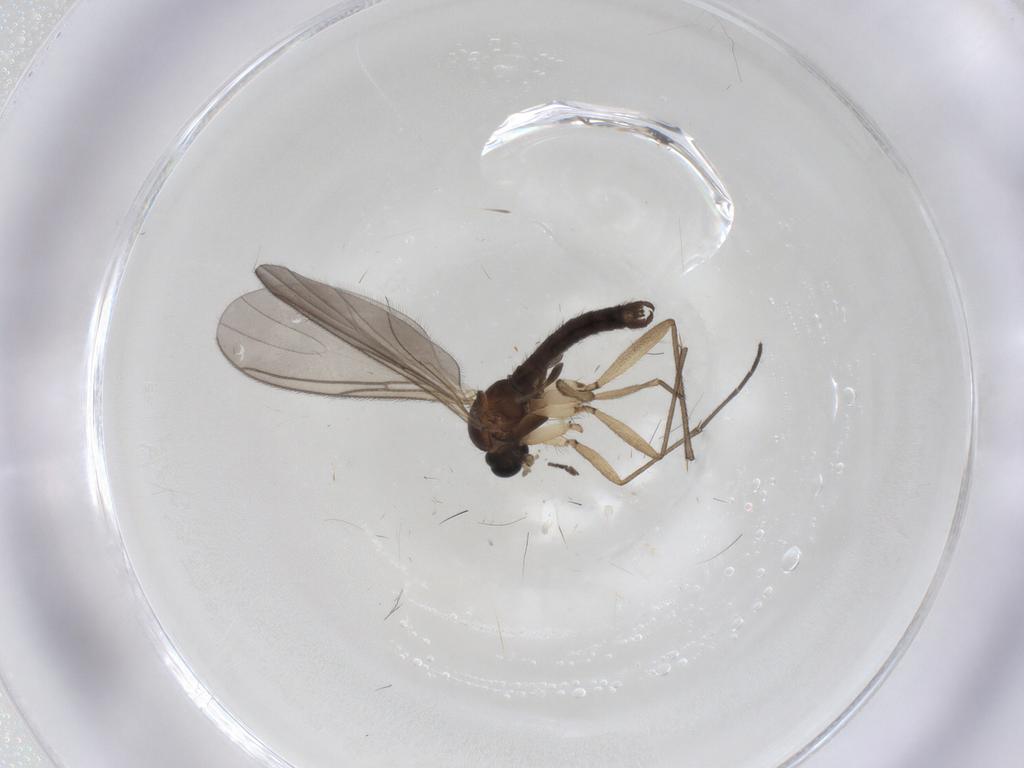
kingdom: Animalia
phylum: Arthropoda
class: Insecta
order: Diptera
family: Sciaridae
